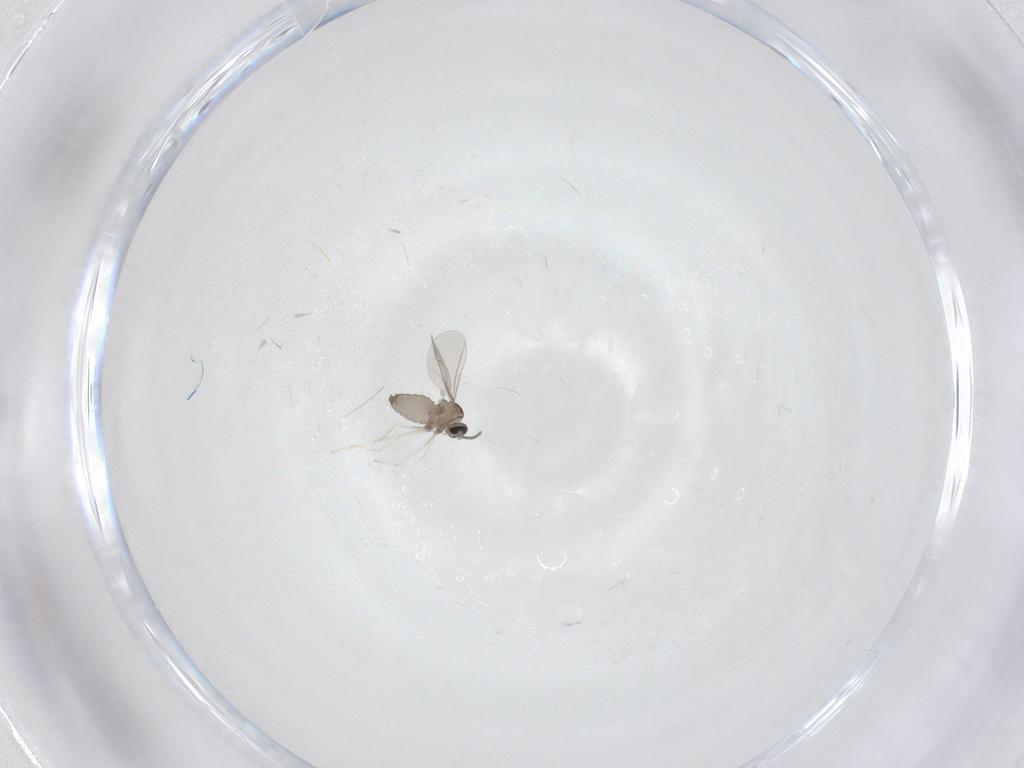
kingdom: Animalia
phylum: Arthropoda
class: Insecta
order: Diptera
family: Cecidomyiidae
